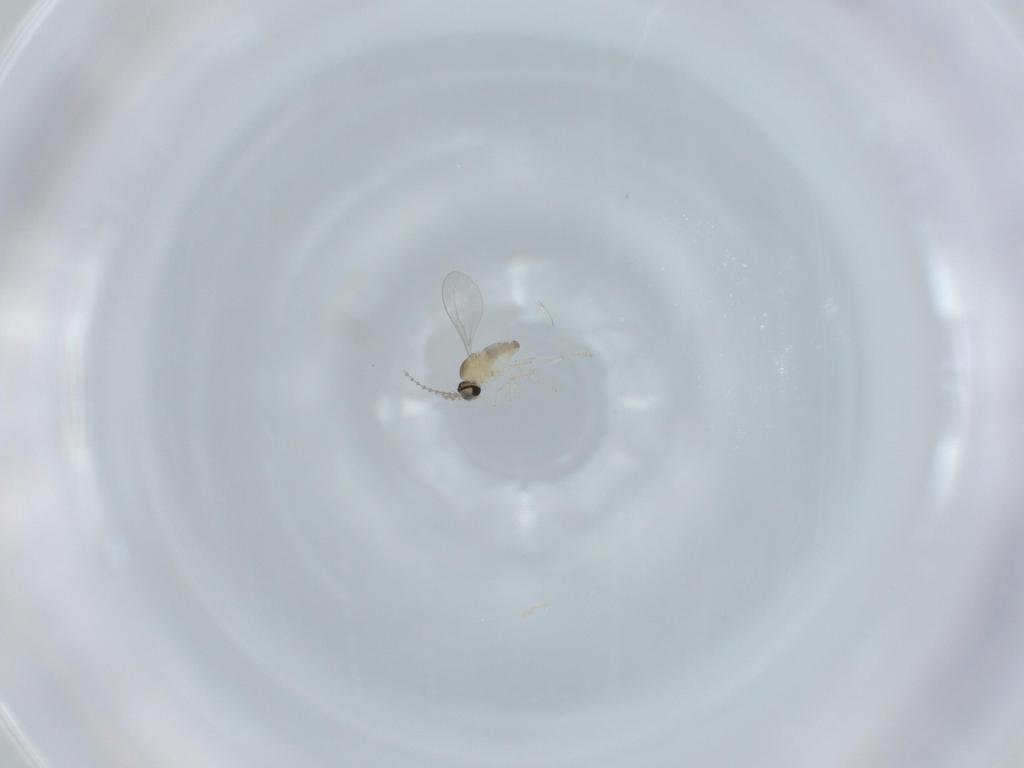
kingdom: Animalia
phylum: Arthropoda
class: Insecta
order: Diptera
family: Cecidomyiidae
